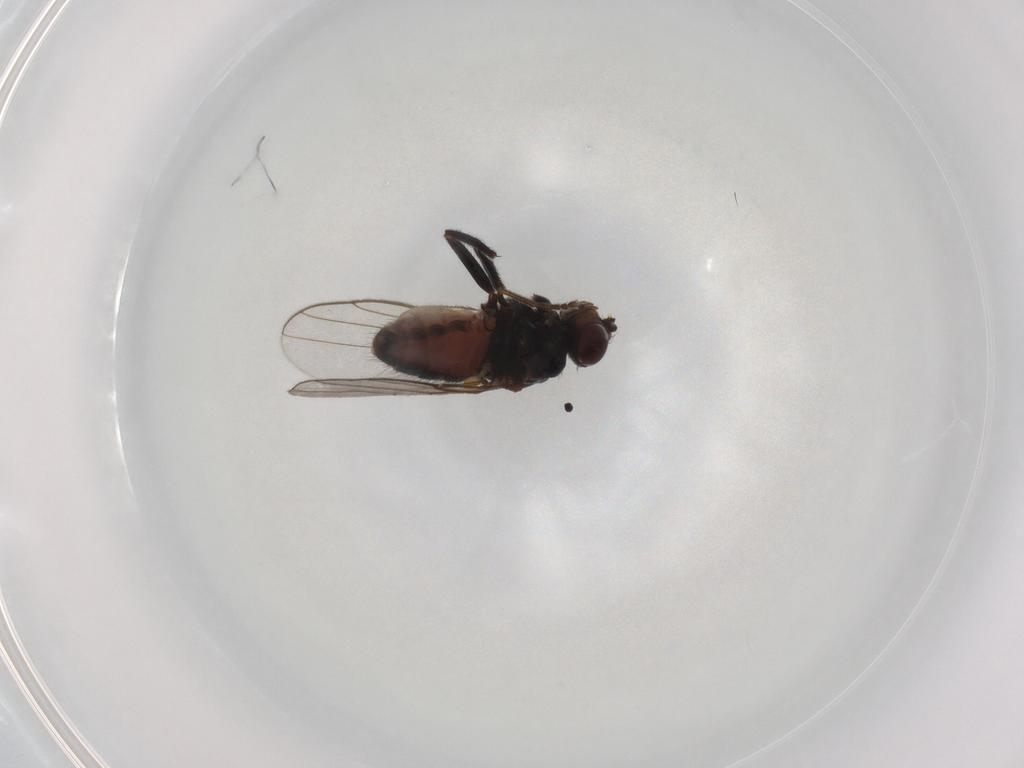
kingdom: Animalia
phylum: Arthropoda
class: Insecta
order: Diptera
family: Chloropidae
